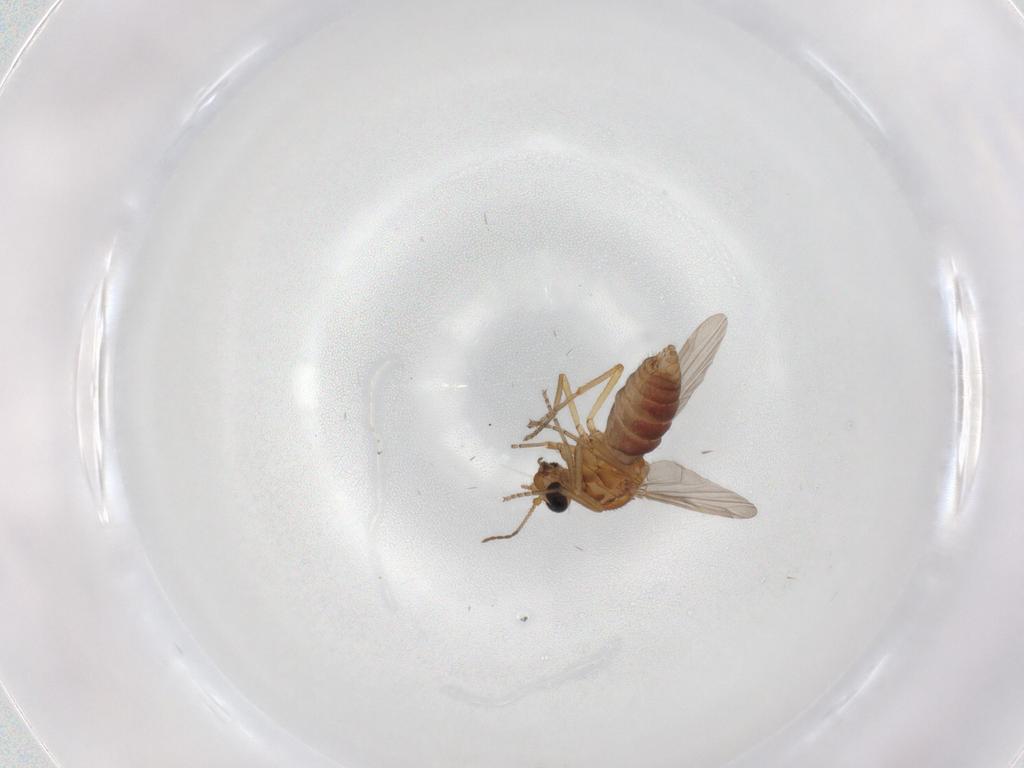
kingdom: Animalia
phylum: Arthropoda
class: Insecta
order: Diptera
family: Ceratopogonidae
